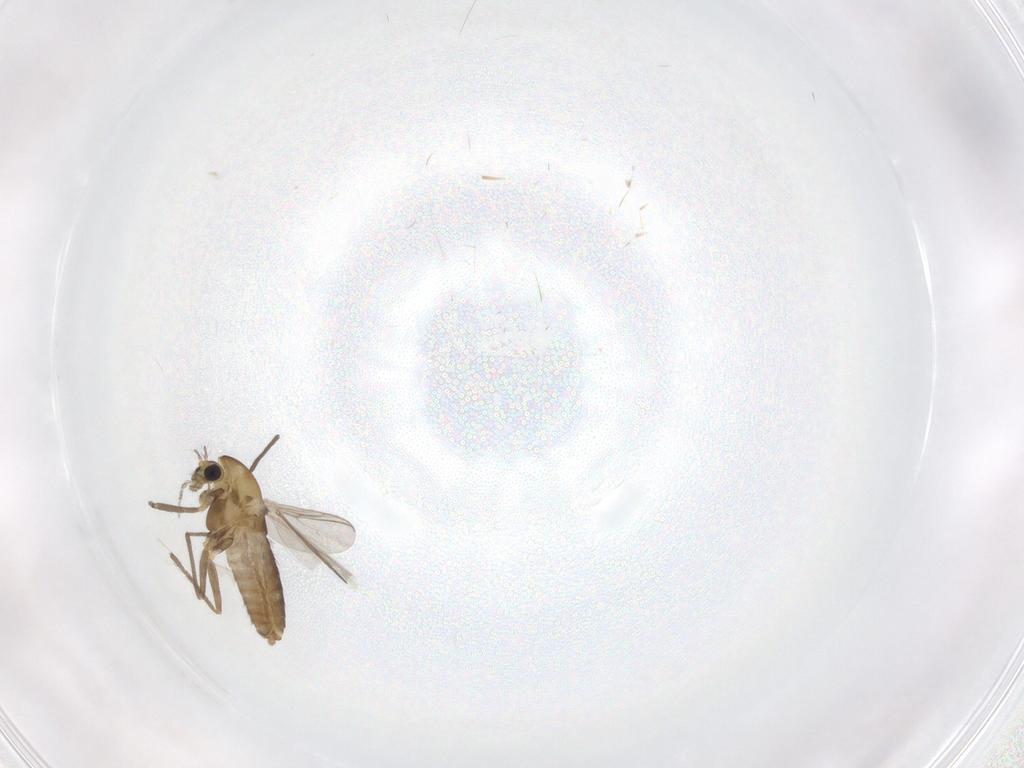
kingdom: Animalia
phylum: Arthropoda
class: Insecta
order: Diptera
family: Chironomidae
